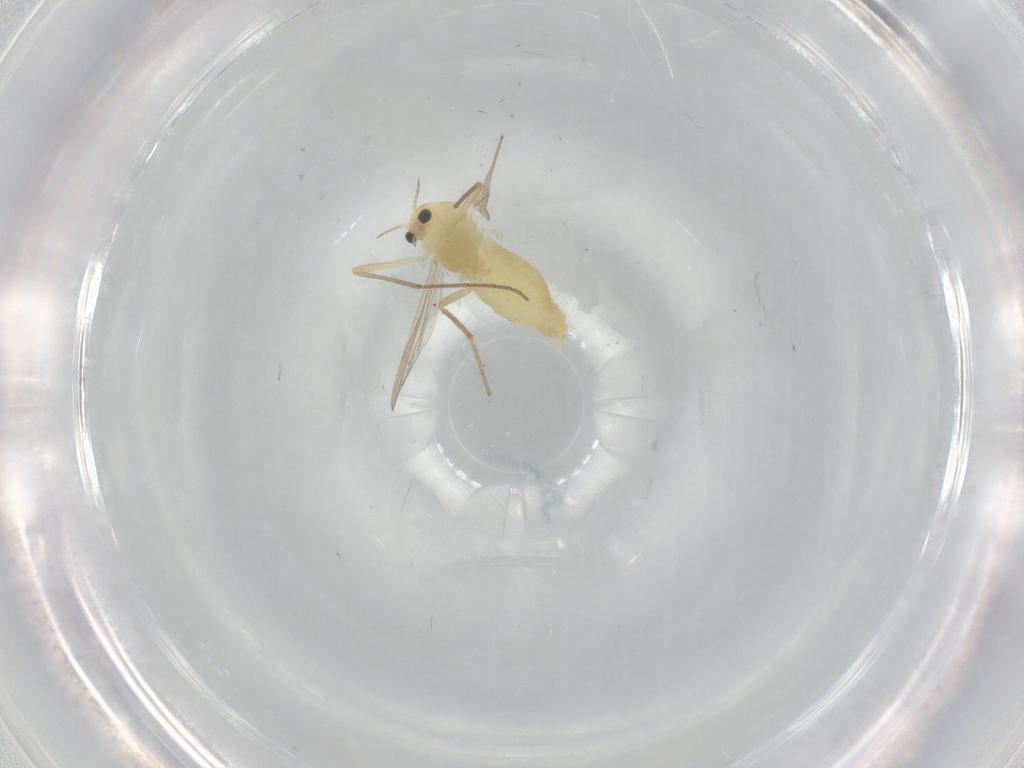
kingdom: Animalia
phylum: Arthropoda
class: Insecta
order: Diptera
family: Chironomidae
